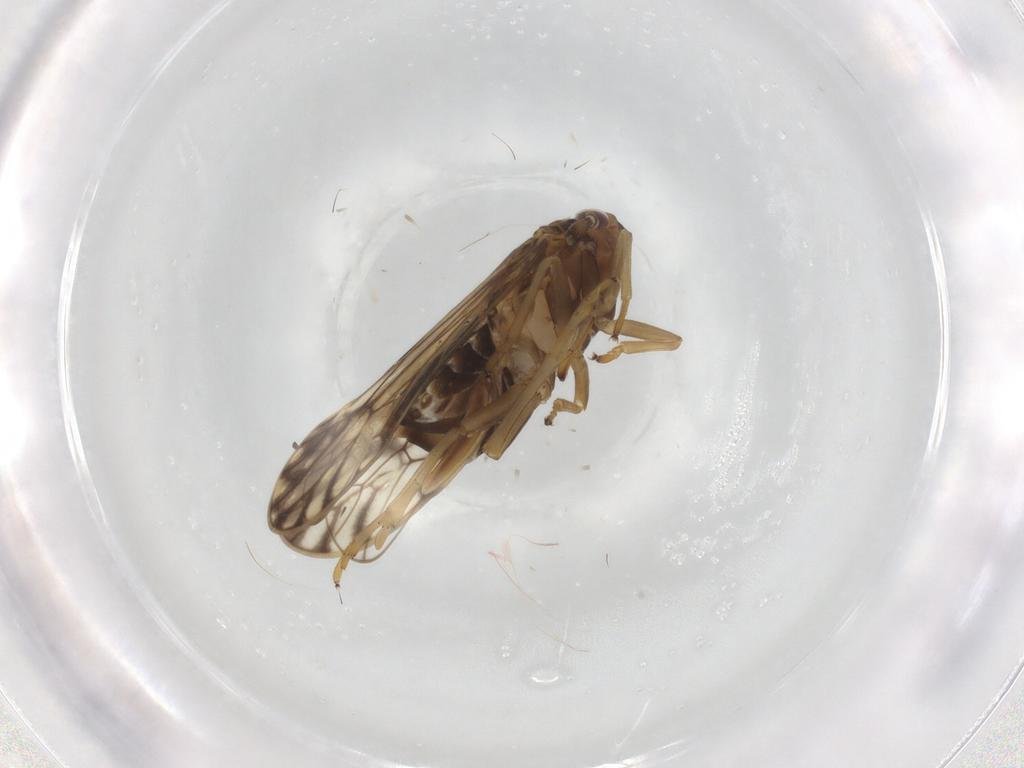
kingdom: Animalia
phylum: Arthropoda
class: Insecta
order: Hemiptera
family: Delphacidae
